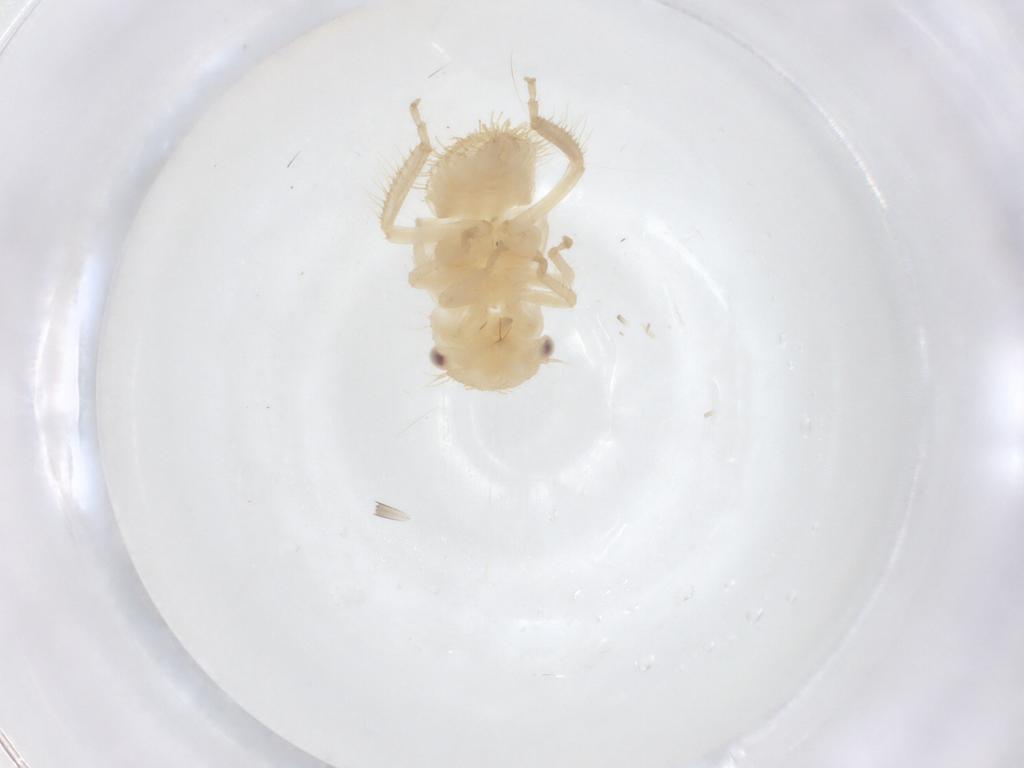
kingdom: Animalia
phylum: Arthropoda
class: Insecta
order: Hemiptera
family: Cicadellidae
